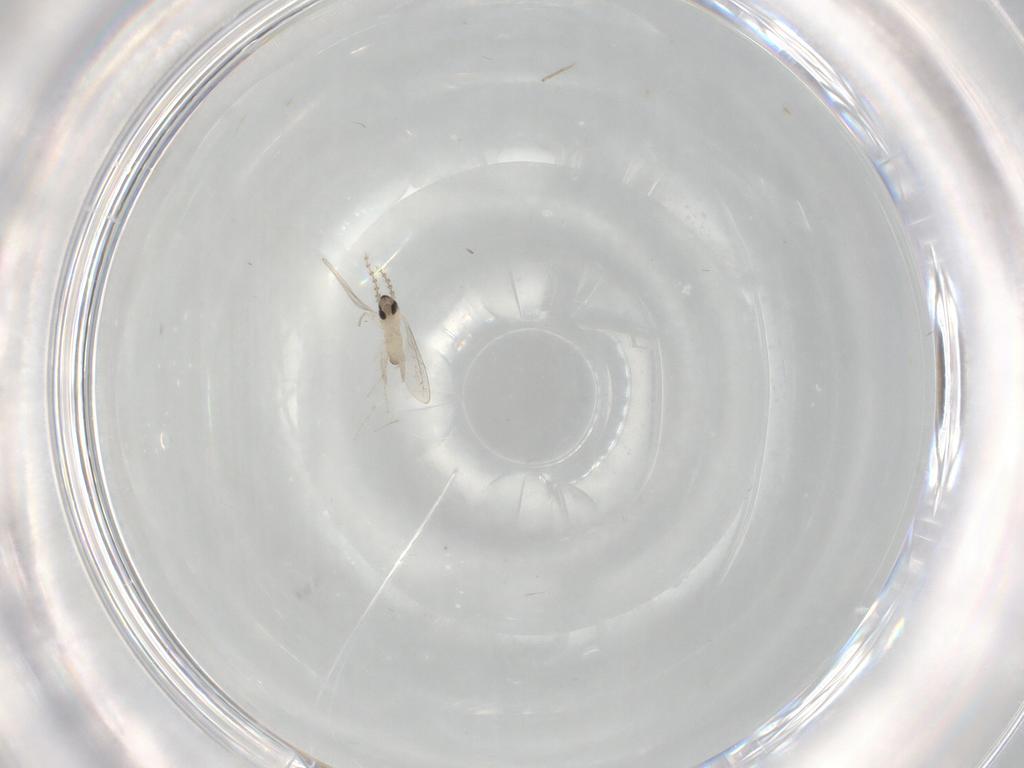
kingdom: Animalia
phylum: Arthropoda
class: Insecta
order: Diptera
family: Cecidomyiidae
